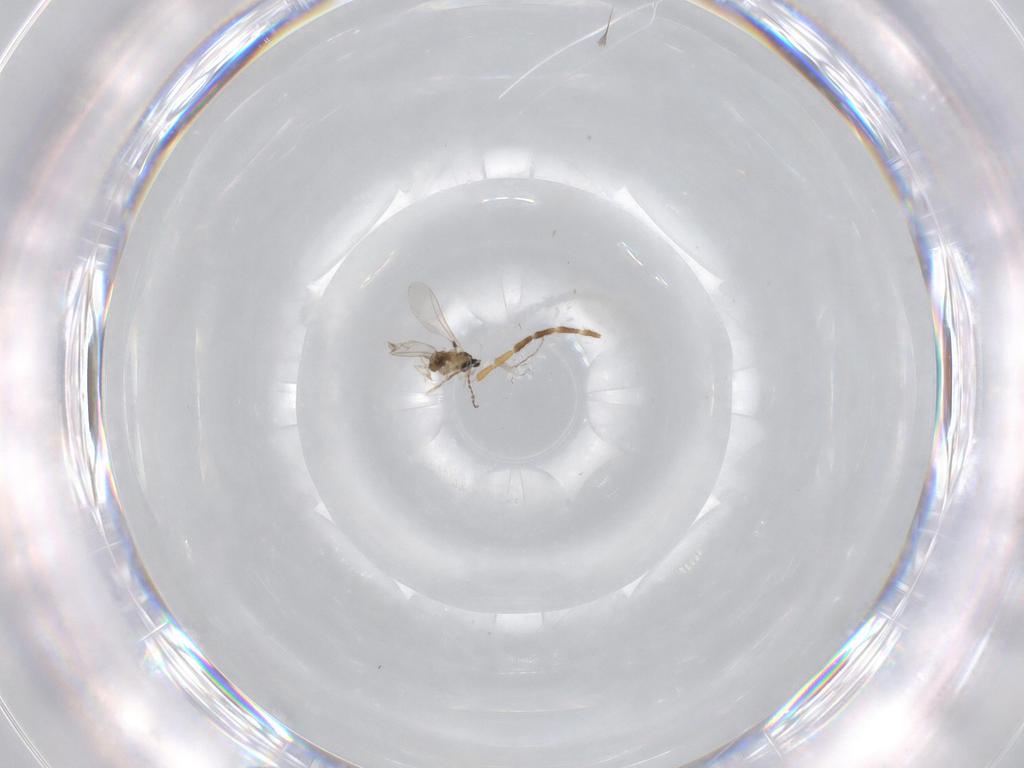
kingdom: Animalia
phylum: Arthropoda
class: Insecta
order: Diptera
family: Cecidomyiidae
